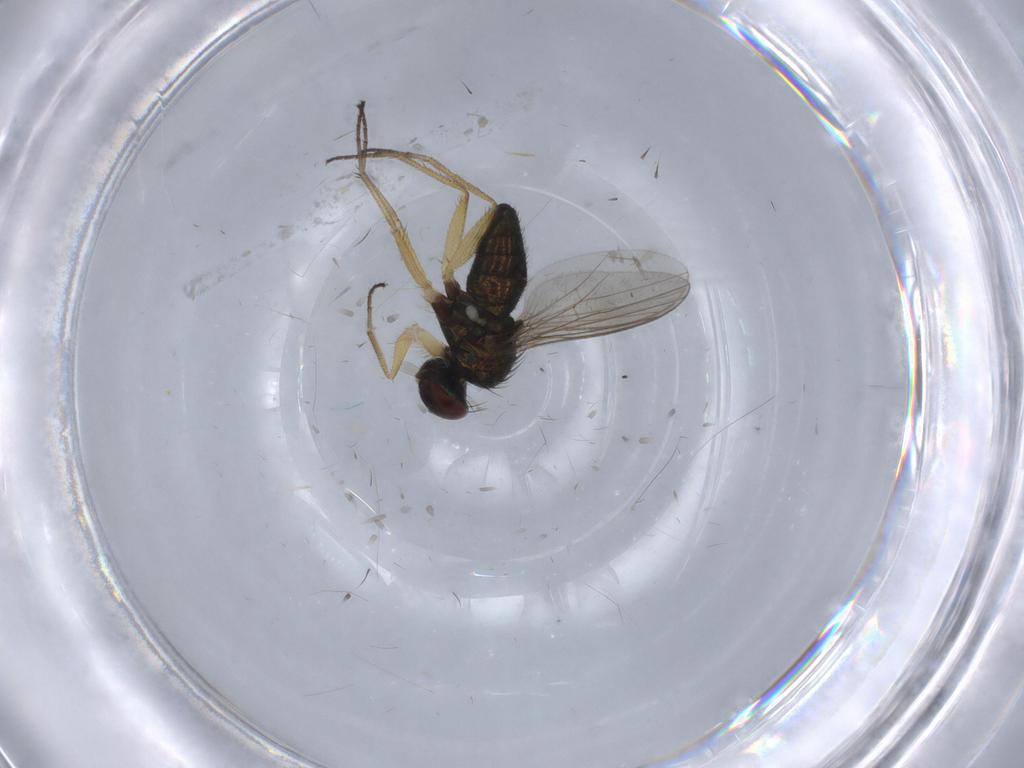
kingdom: Animalia
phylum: Arthropoda
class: Insecta
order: Diptera
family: Dolichopodidae
